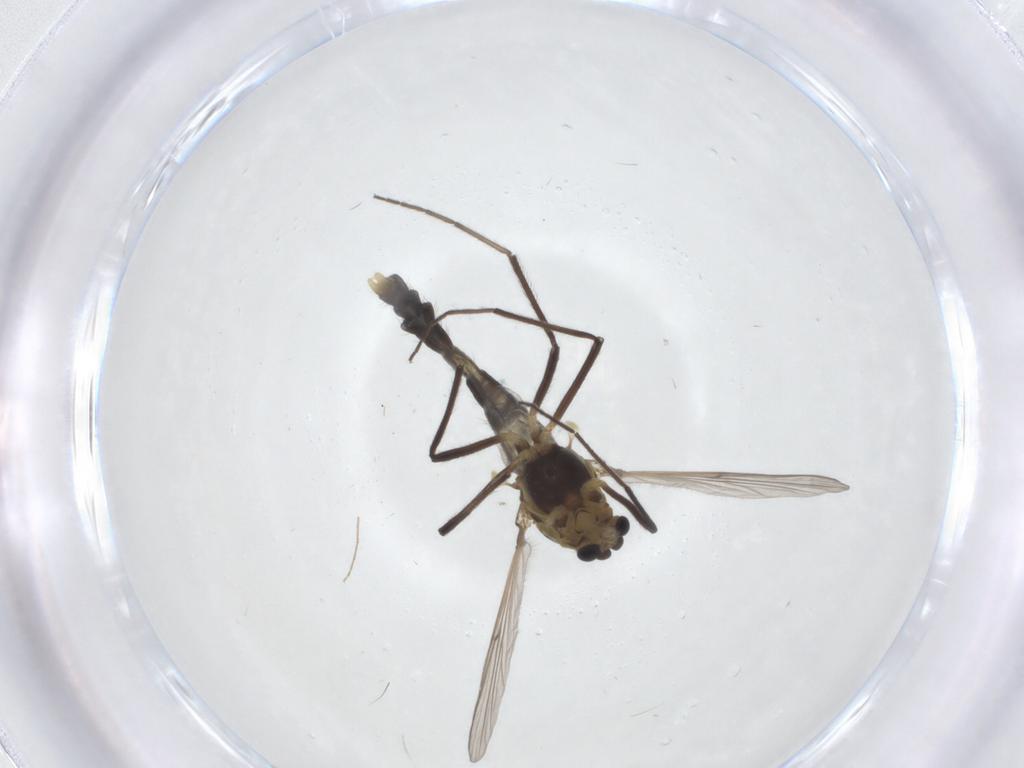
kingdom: Animalia
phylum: Arthropoda
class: Insecta
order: Diptera
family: Chironomidae
